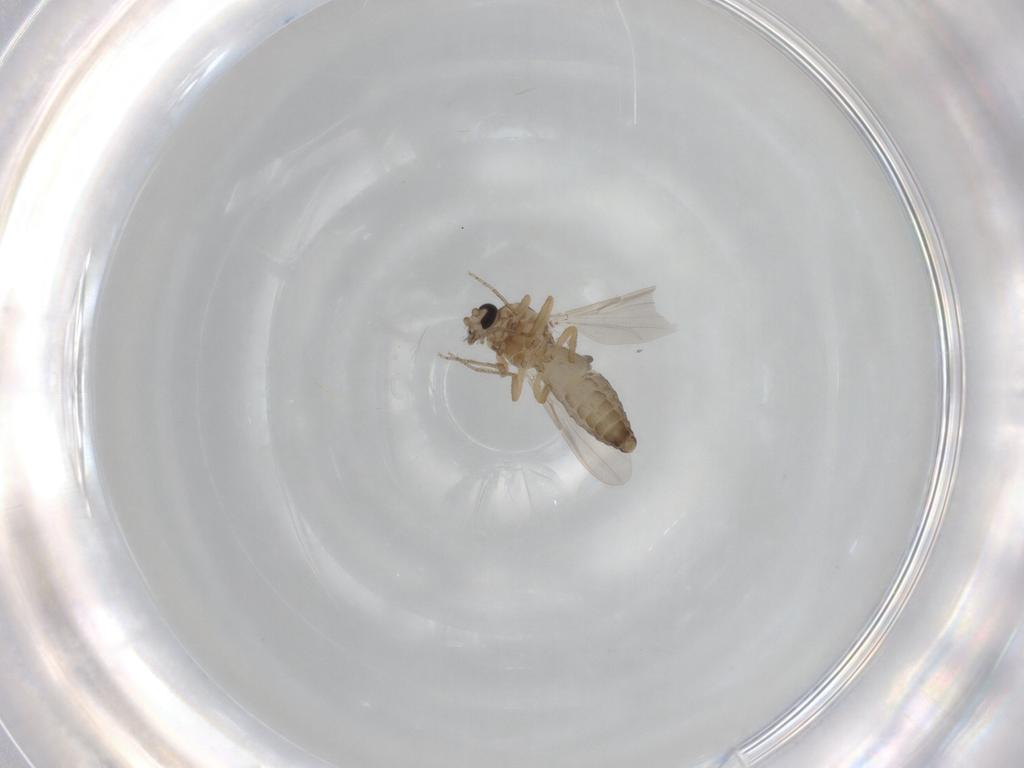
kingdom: Animalia
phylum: Arthropoda
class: Insecta
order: Diptera
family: Ceratopogonidae
